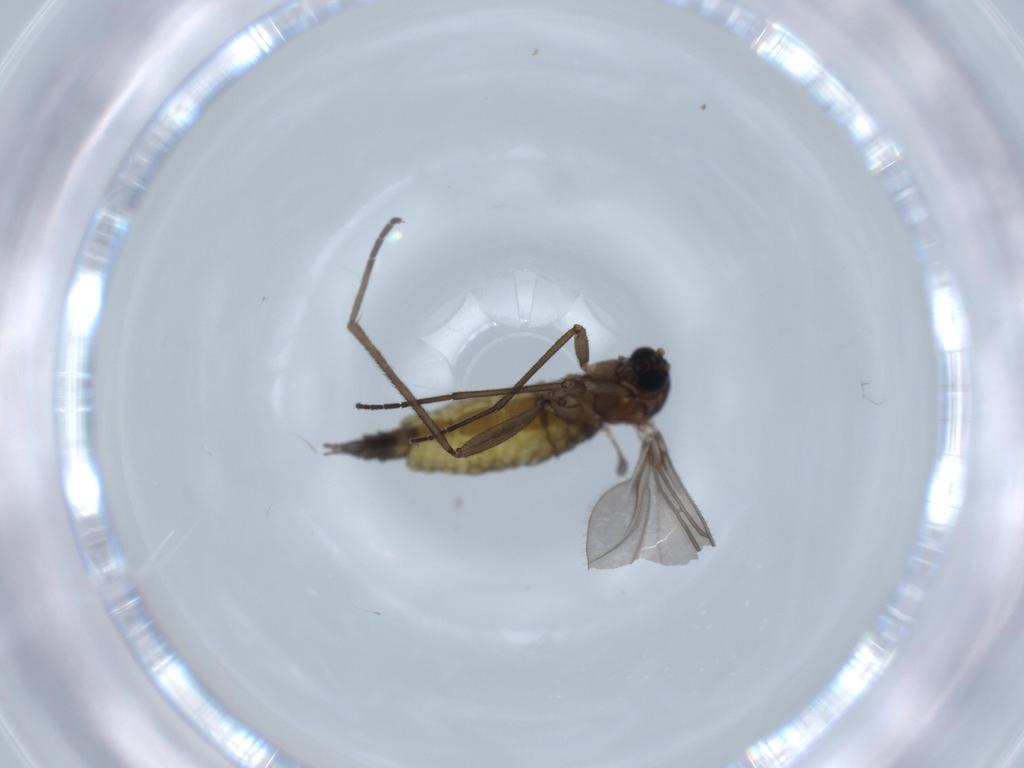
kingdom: Animalia
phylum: Arthropoda
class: Insecta
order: Diptera
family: Sciaridae
